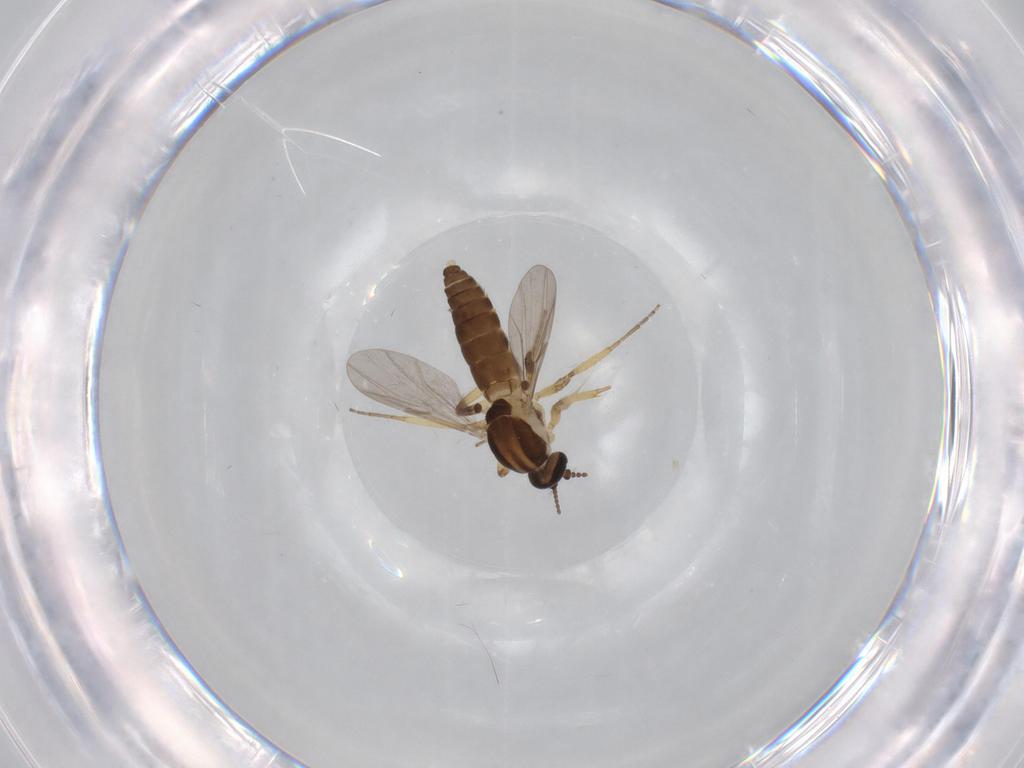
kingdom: Animalia
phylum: Arthropoda
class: Insecta
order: Diptera
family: Ceratopogonidae
